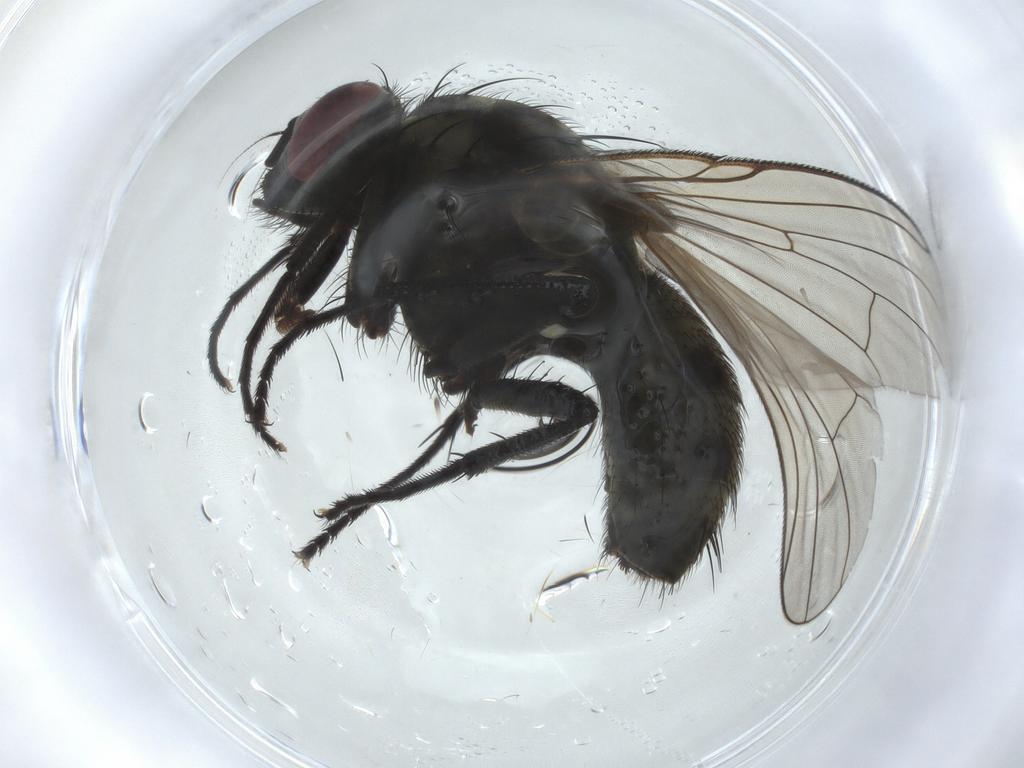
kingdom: Animalia
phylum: Arthropoda
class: Insecta
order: Diptera
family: Muscidae
